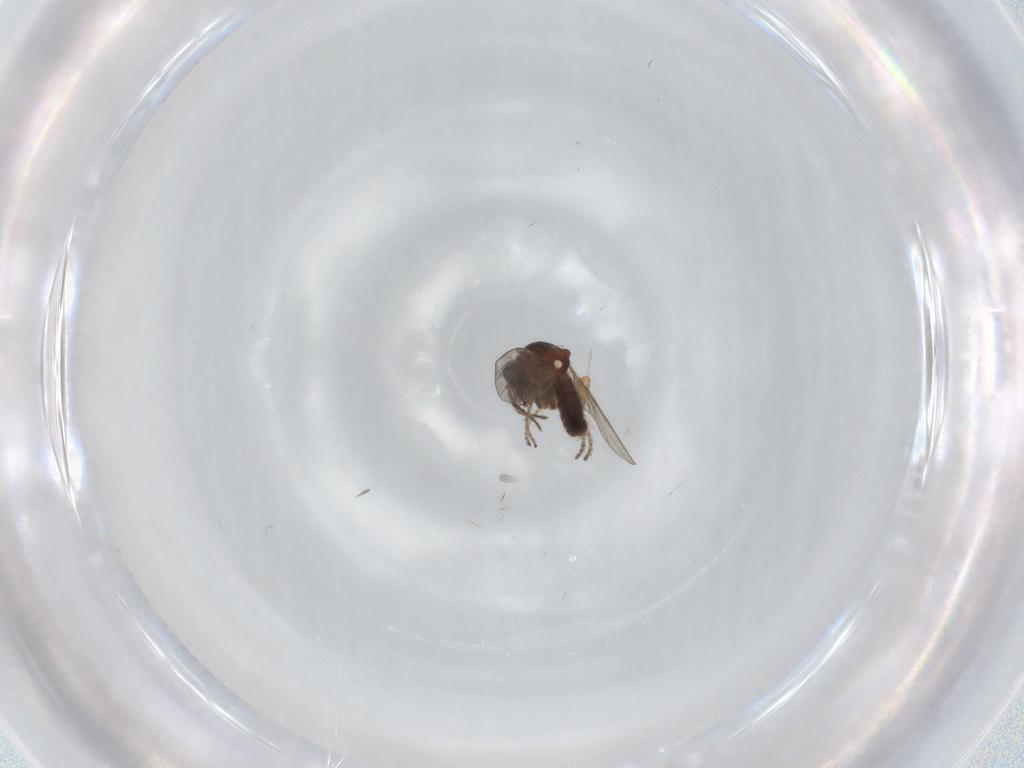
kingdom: Animalia
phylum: Arthropoda
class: Insecta
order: Diptera
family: Ceratopogonidae
